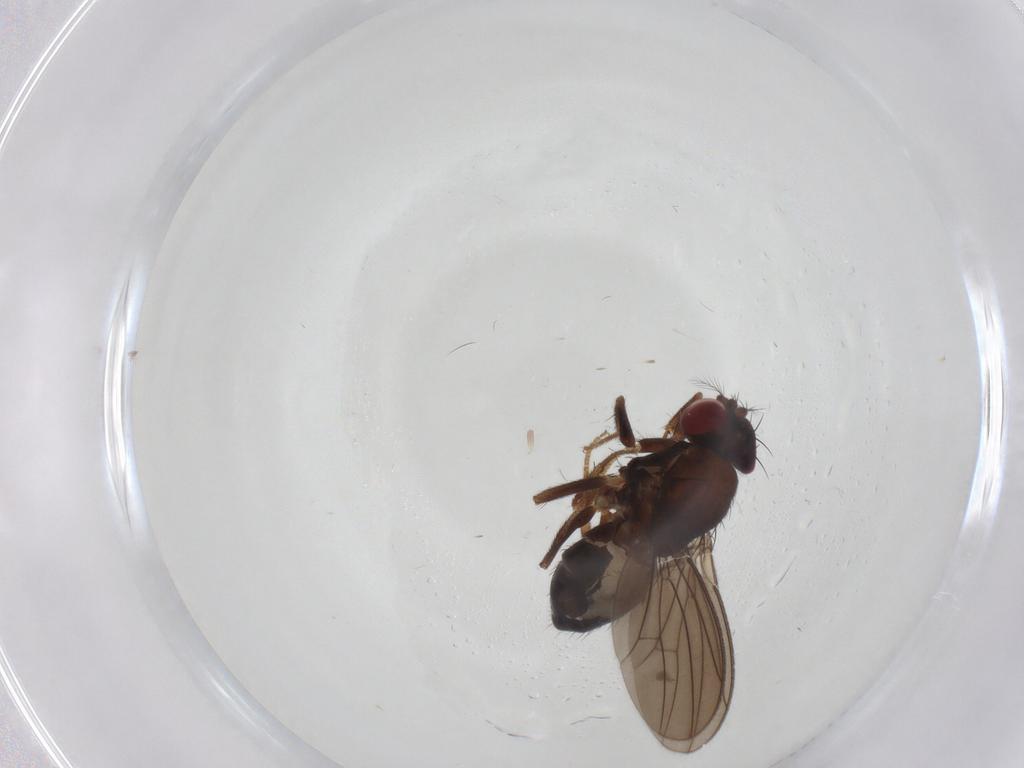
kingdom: Animalia
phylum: Arthropoda
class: Insecta
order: Diptera
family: Drosophilidae
